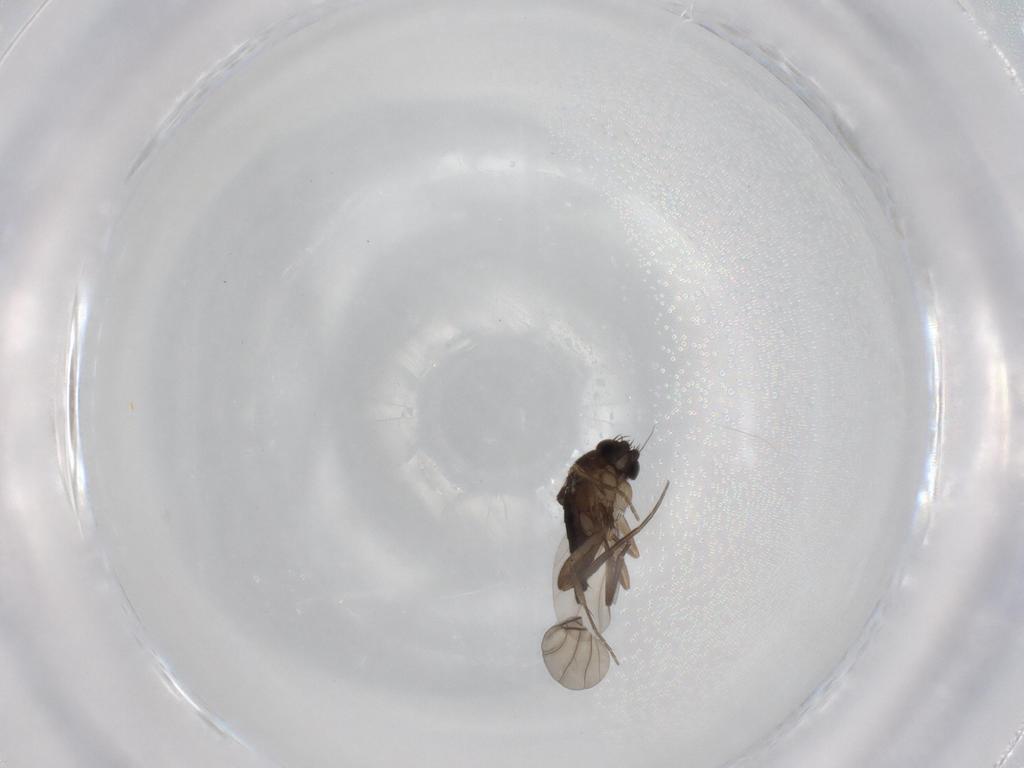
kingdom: Animalia
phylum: Arthropoda
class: Insecta
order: Diptera
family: Phoridae
